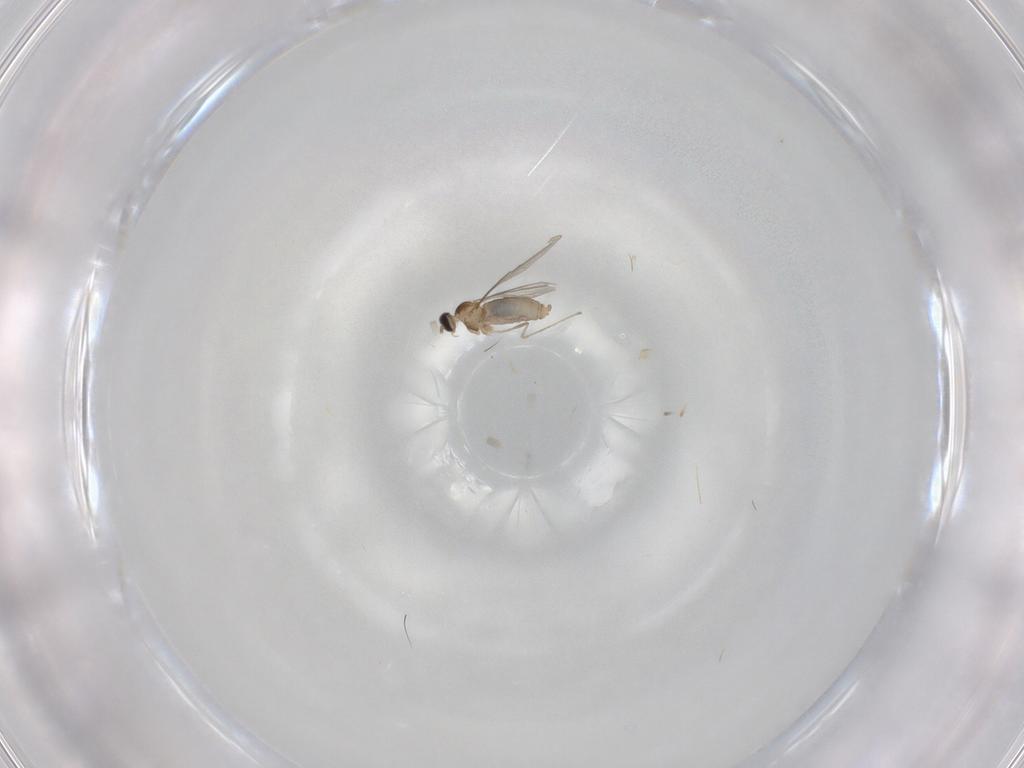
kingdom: Animalia
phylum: Arthropoda
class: Insecta
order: Diptera
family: Cecidomyiidae
